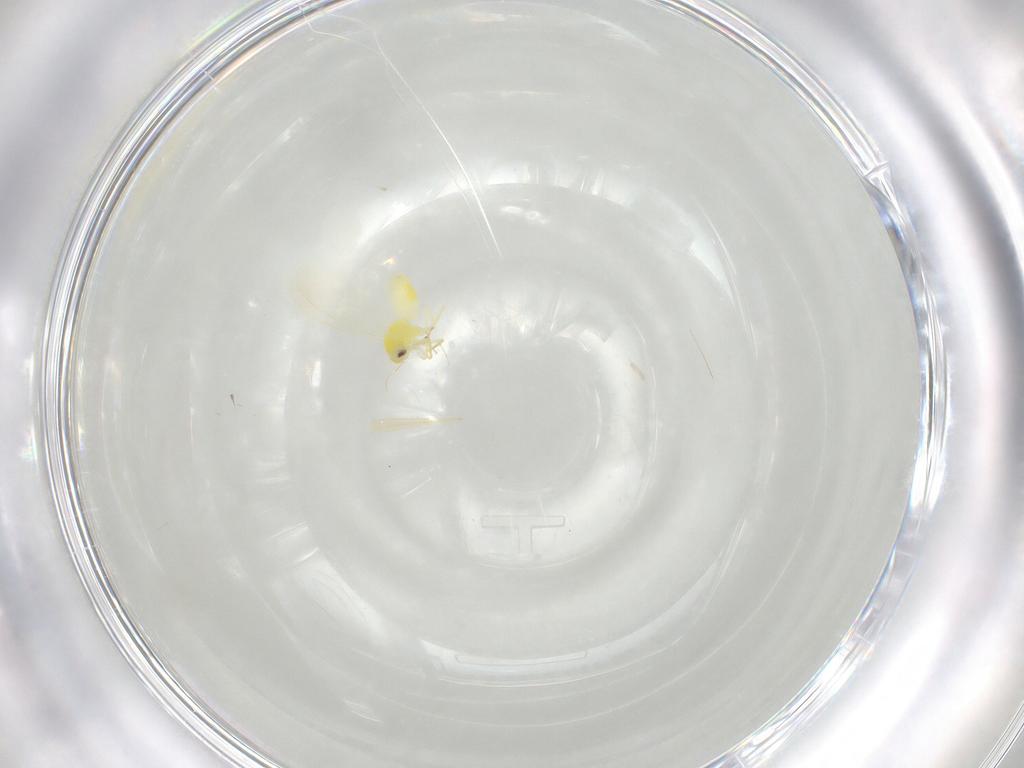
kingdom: Animalia
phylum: Arthropoda
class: Insecta
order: Hemiptera
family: Aleyrodidae
